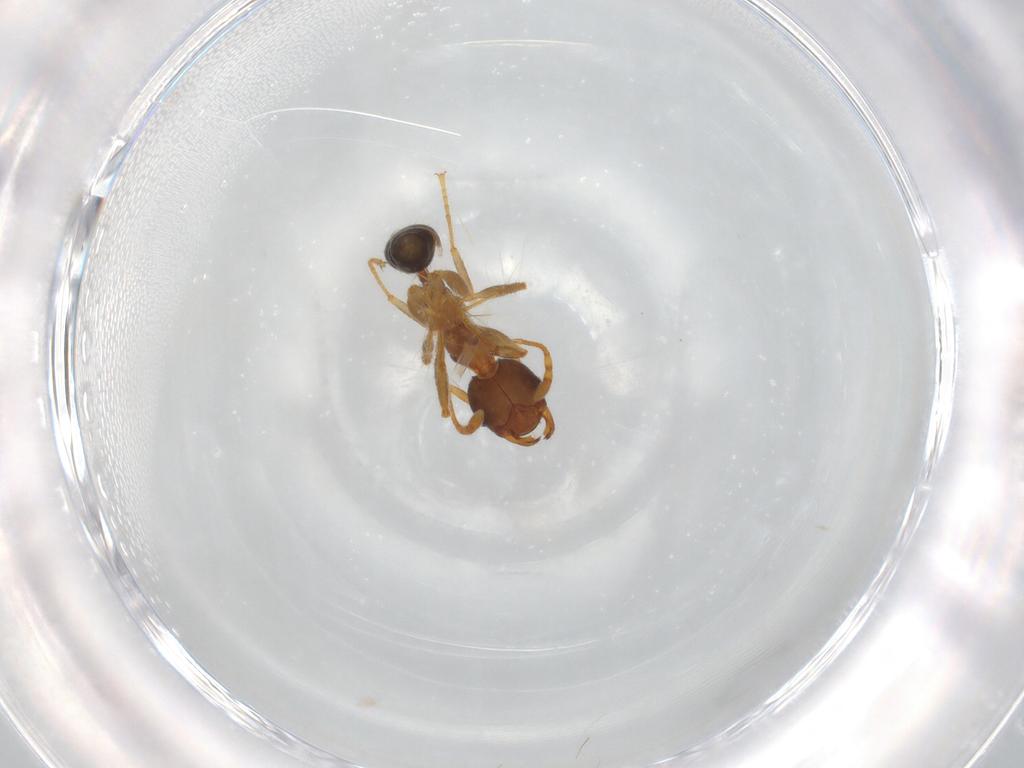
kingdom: Animalia
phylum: Arthropoda
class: Insecta
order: Hymenoptera
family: Formicidae
